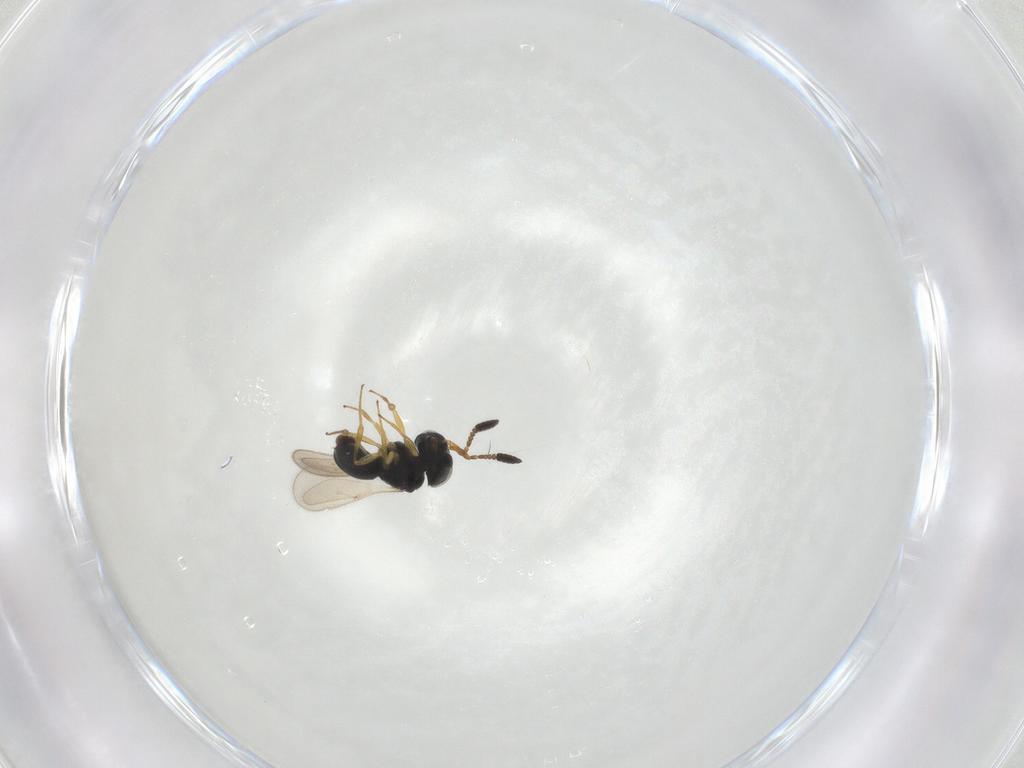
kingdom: Animalia
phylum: Arthropoda
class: Insecta
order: Hymenoptera
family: Scelionidae
